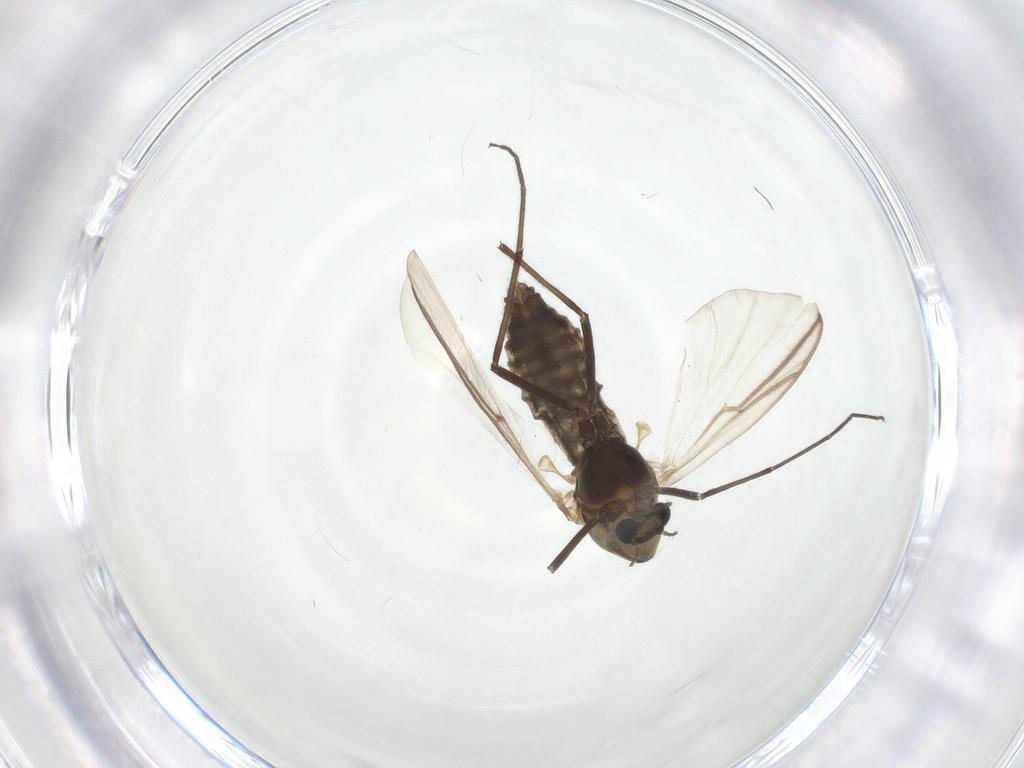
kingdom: Animalia
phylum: Arthropoda
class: Insecta
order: Diptera
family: Chironomidae
